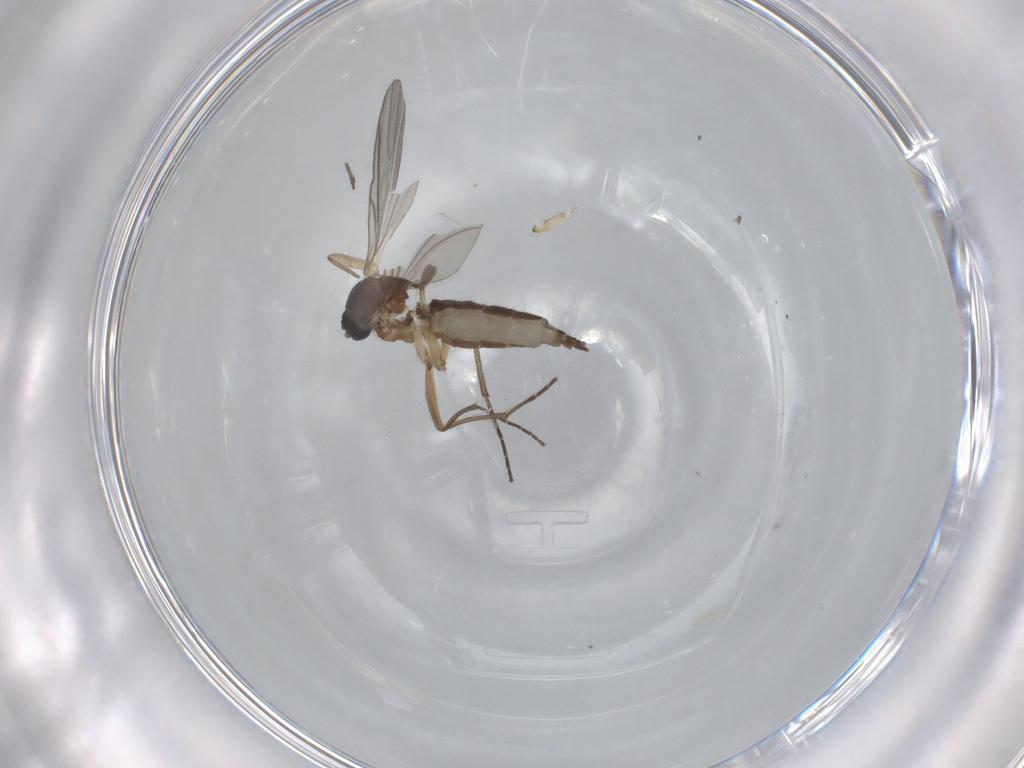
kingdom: Animalia
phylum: Arthropoda
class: Insecta
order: Diptera
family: Sciaridae
